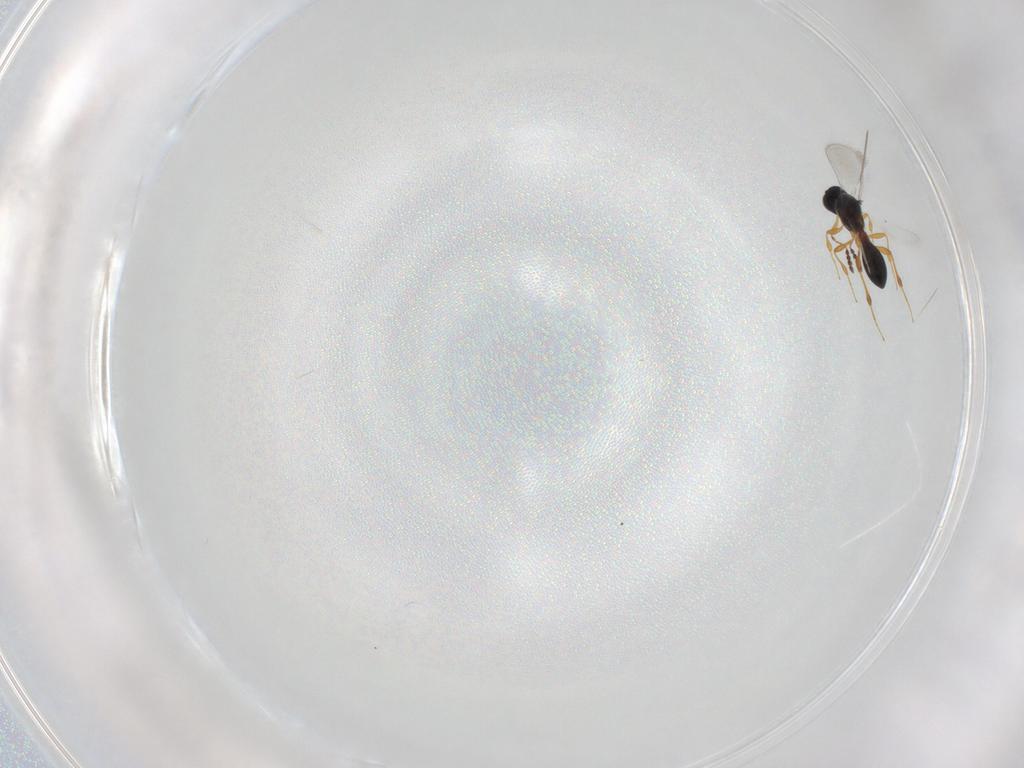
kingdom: Animalia
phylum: Arthropoda
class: Insecta
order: Hymenoptera
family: Platygastridae
